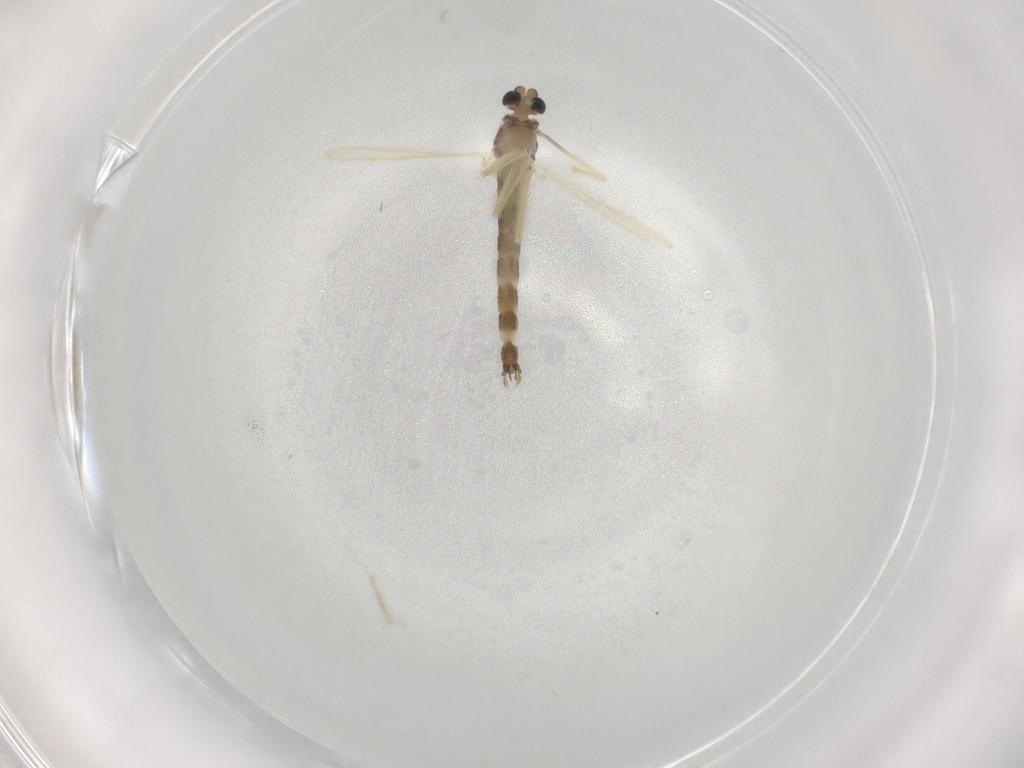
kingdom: Animalia
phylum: Arthropoda
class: Insecta
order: Diptera
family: Chironomidae
